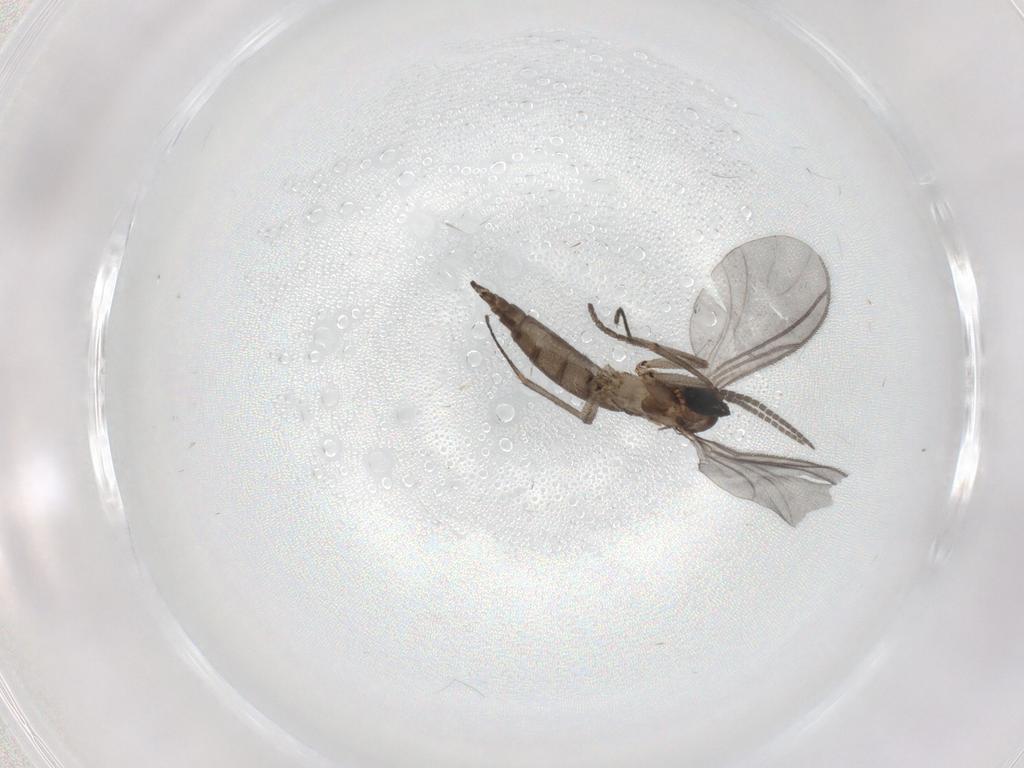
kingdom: Animalia
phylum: Arthropoda
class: Insecta
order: Diptera
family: Sciaridae
